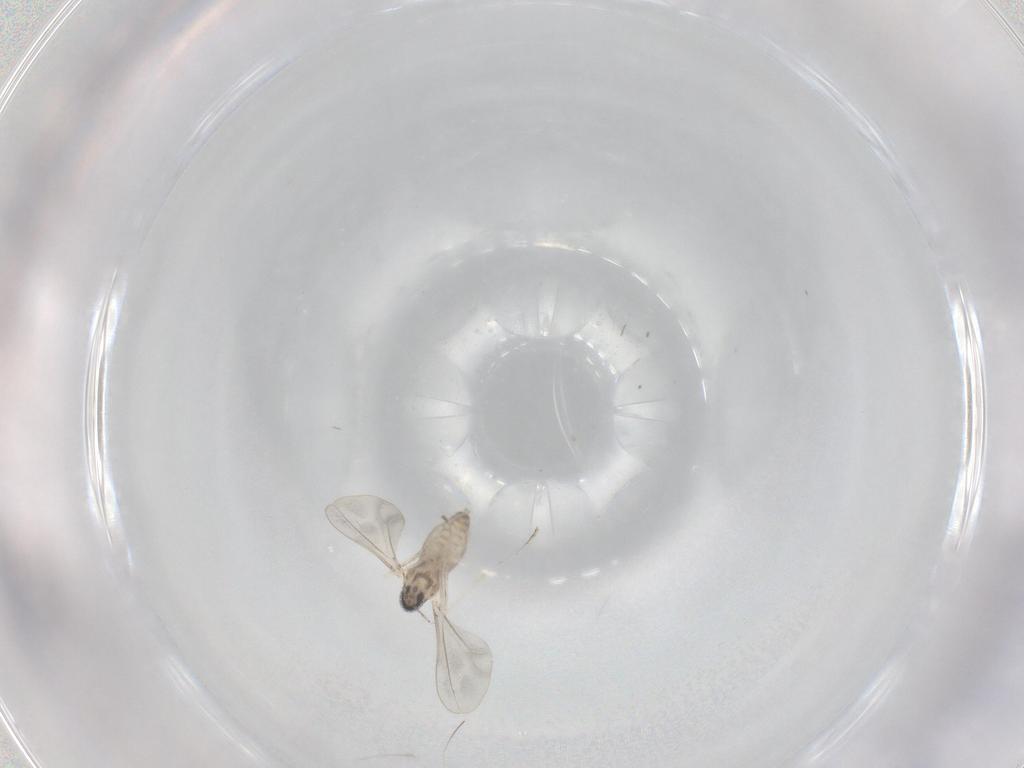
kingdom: Animalia
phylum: Arthropoda
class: Insecta
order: Diptera
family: Cecidomyiidae
